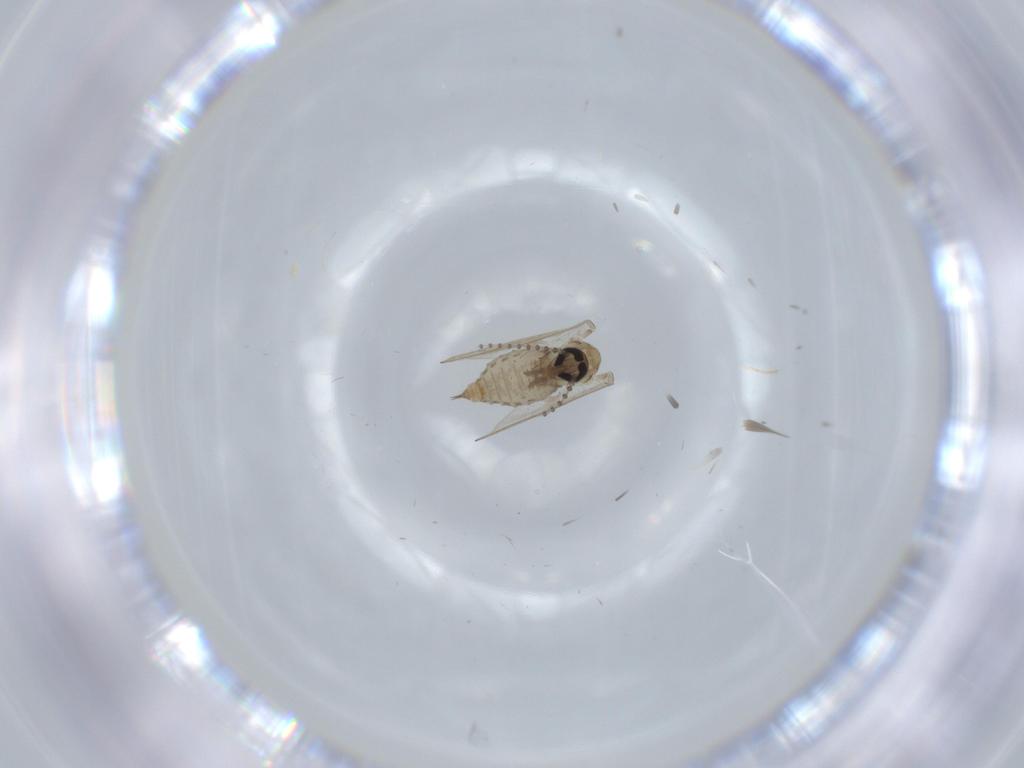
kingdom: Animalia
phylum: Arthropoda
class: Insecta
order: Diptera
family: Psychodidae
